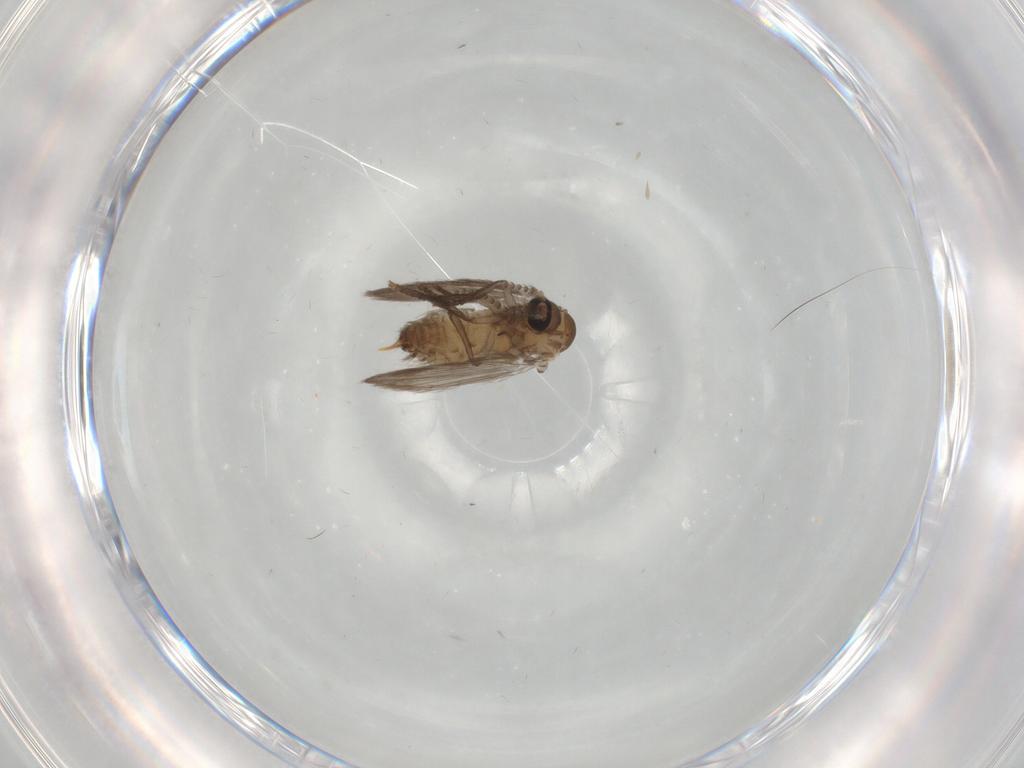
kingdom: Animalia
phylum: Arthropoda
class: Insecta
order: Diptera
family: Psychodidae
